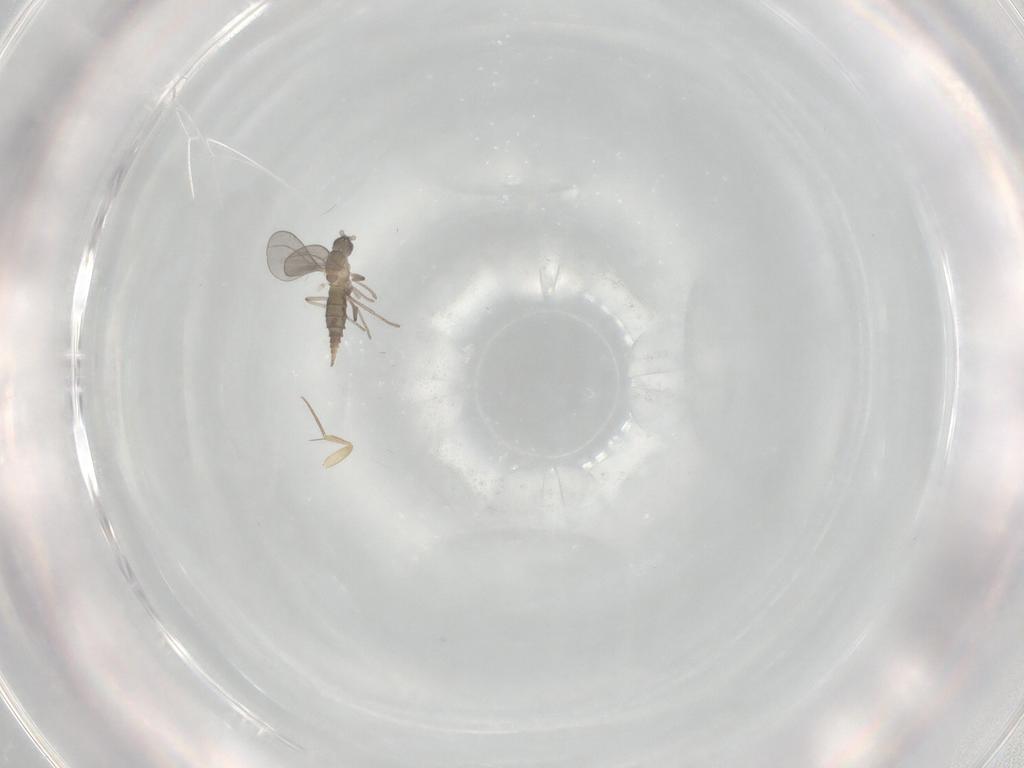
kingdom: Animalia
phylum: Arthropoda
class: Insecta
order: Diptera
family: Cecidomyiidae
